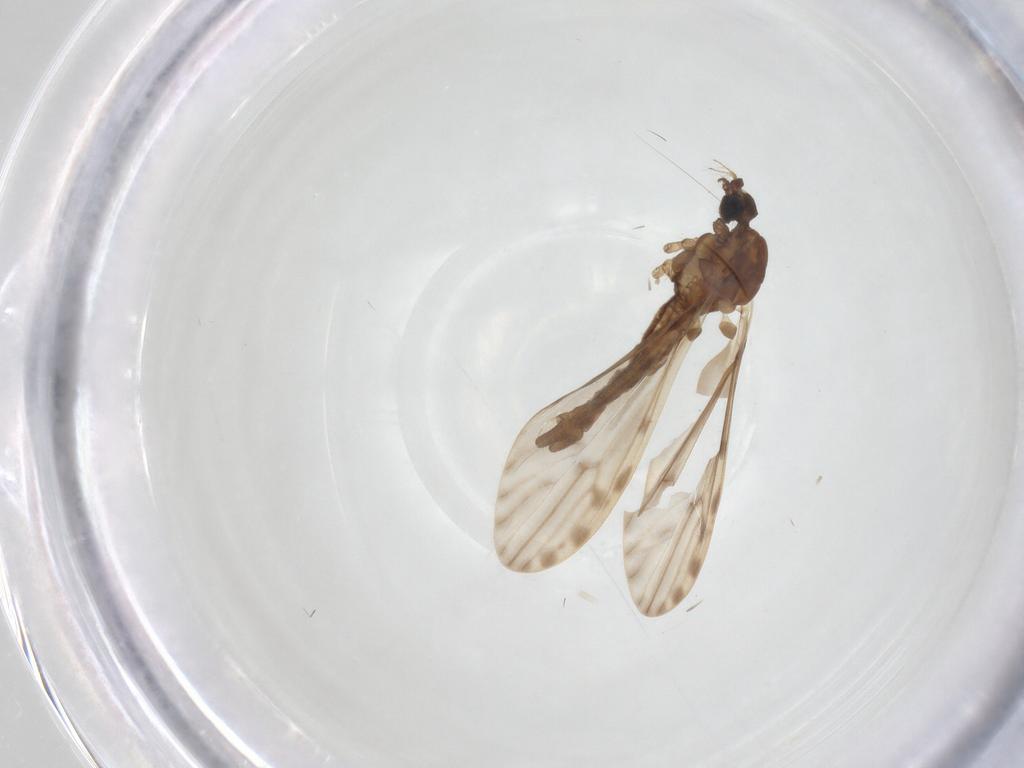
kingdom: Animalia
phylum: Arthropoda
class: Insecta
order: Diptera
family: Limoniidae
